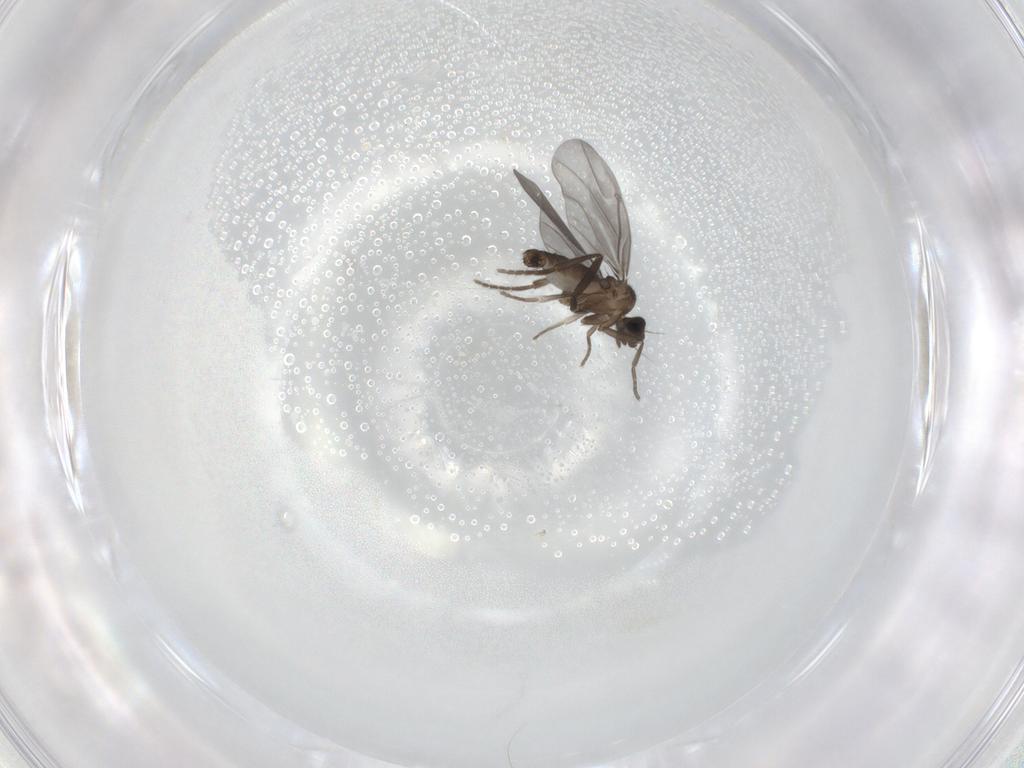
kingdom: Animalia
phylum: Arthropoda
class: Insecta
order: Diptera
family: Phoridae
